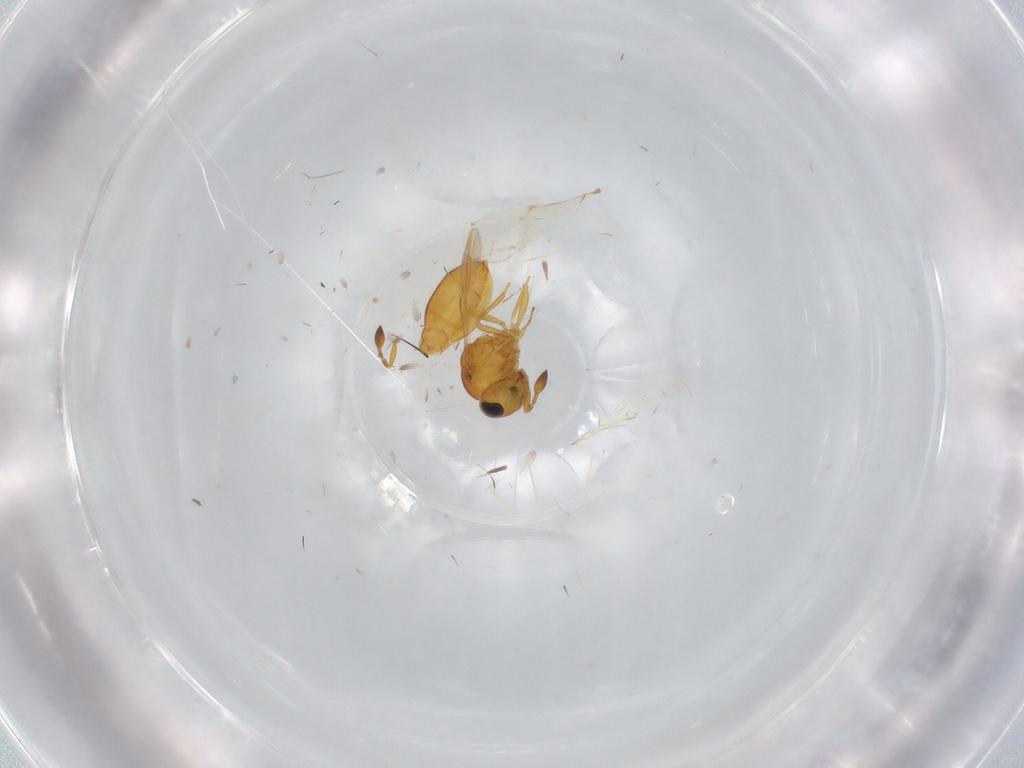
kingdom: Animalia
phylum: Arthropoda
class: Insecta
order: Hymenoptera
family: Scelionidae
